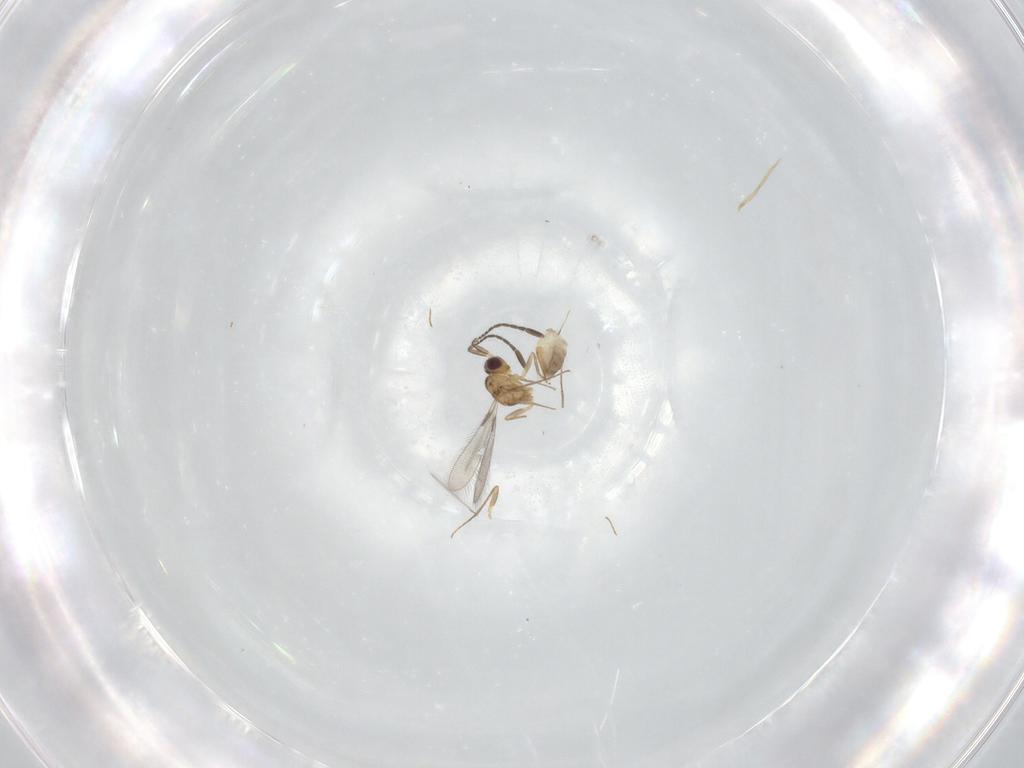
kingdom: Animalia
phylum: Arthropoda
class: Insecta
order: Hymenoptera
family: Mymaridae
